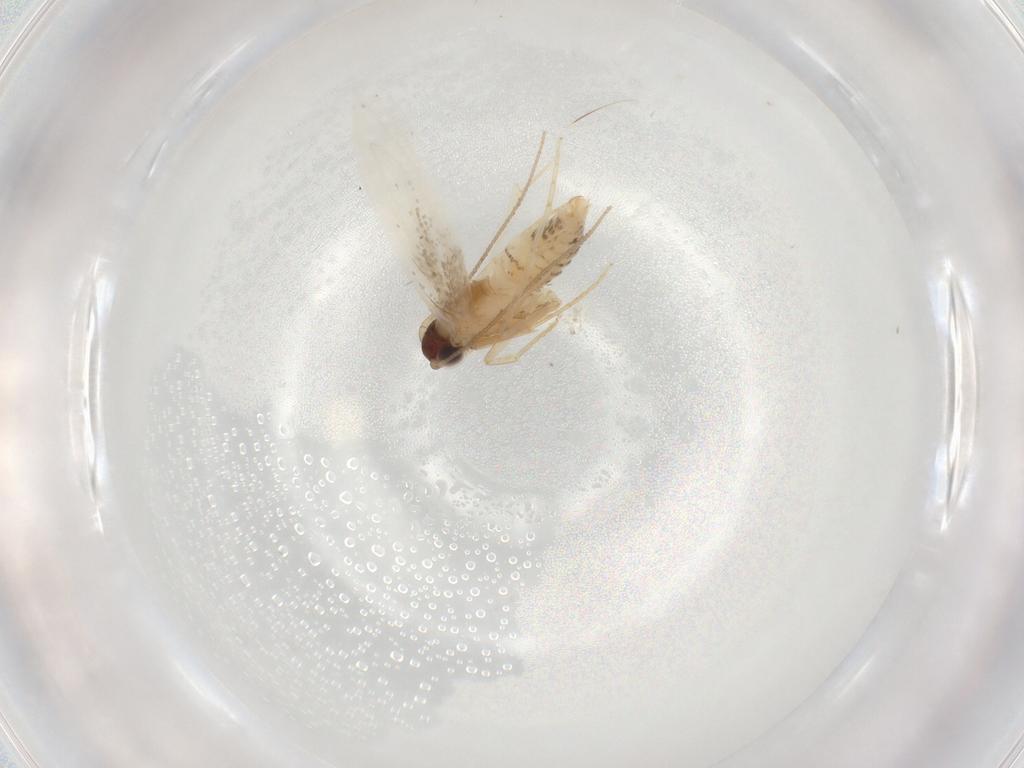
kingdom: Animalia
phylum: Arthropoda
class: Insecta
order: Lepidoptera
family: Tineidae
